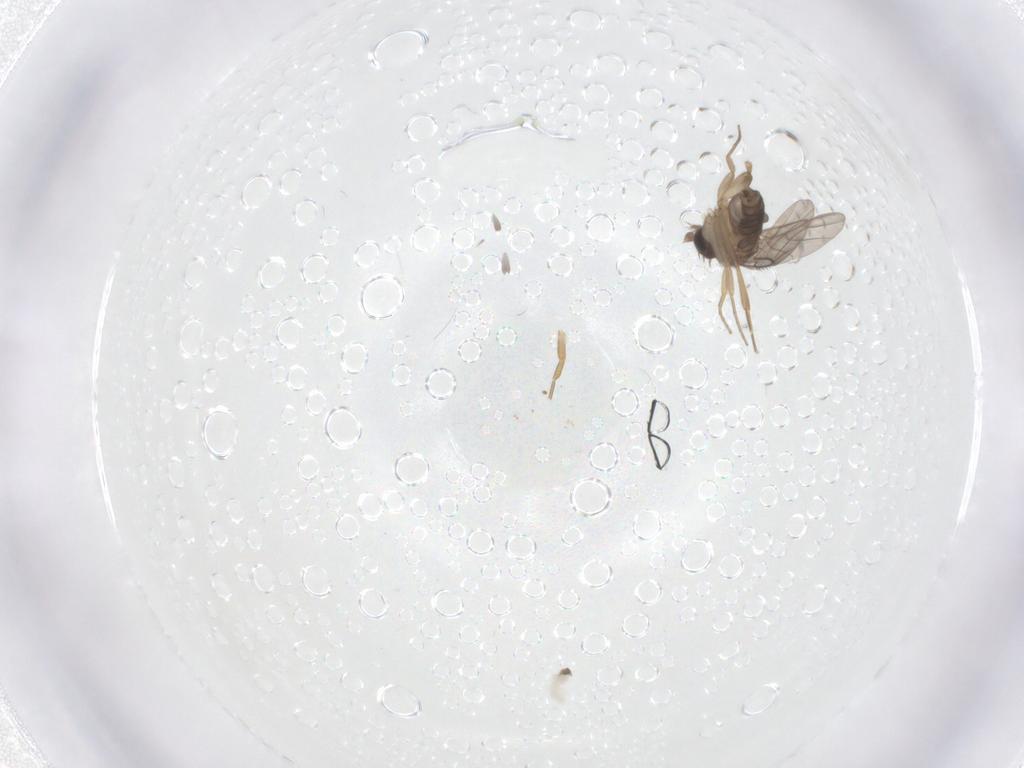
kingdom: Animalia
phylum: Arthropoda
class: Insecta
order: Diptera
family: Phoridae
